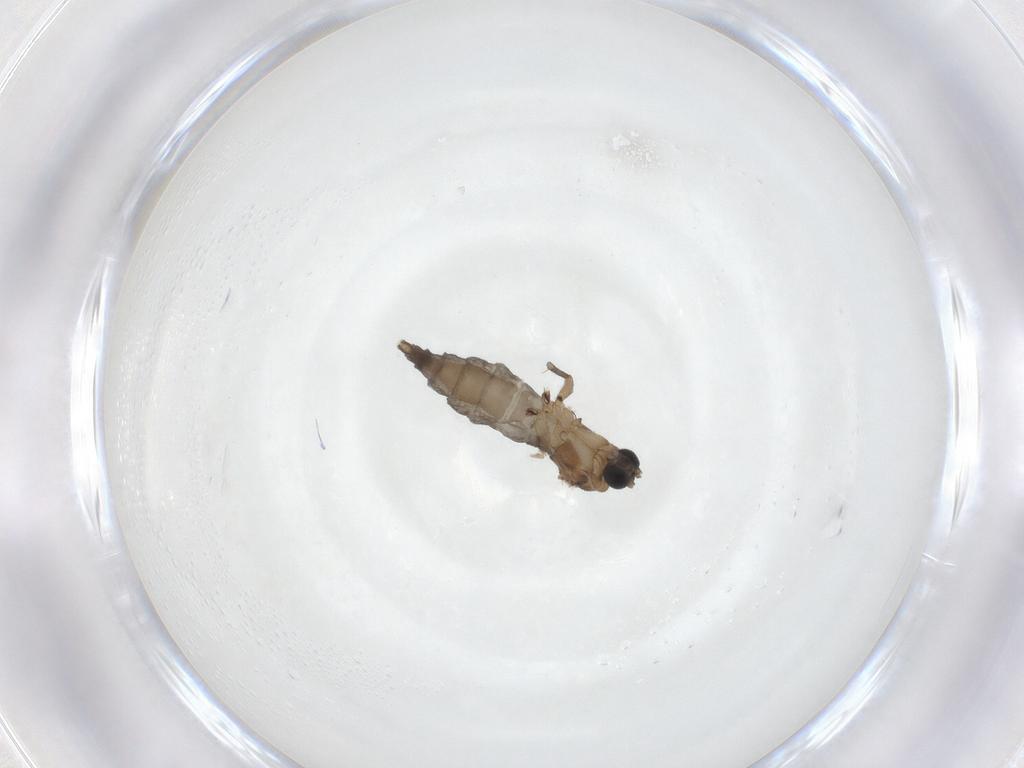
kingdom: Animalia
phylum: Arthropoda
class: Insecta
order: Diptera
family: Sciaridae
